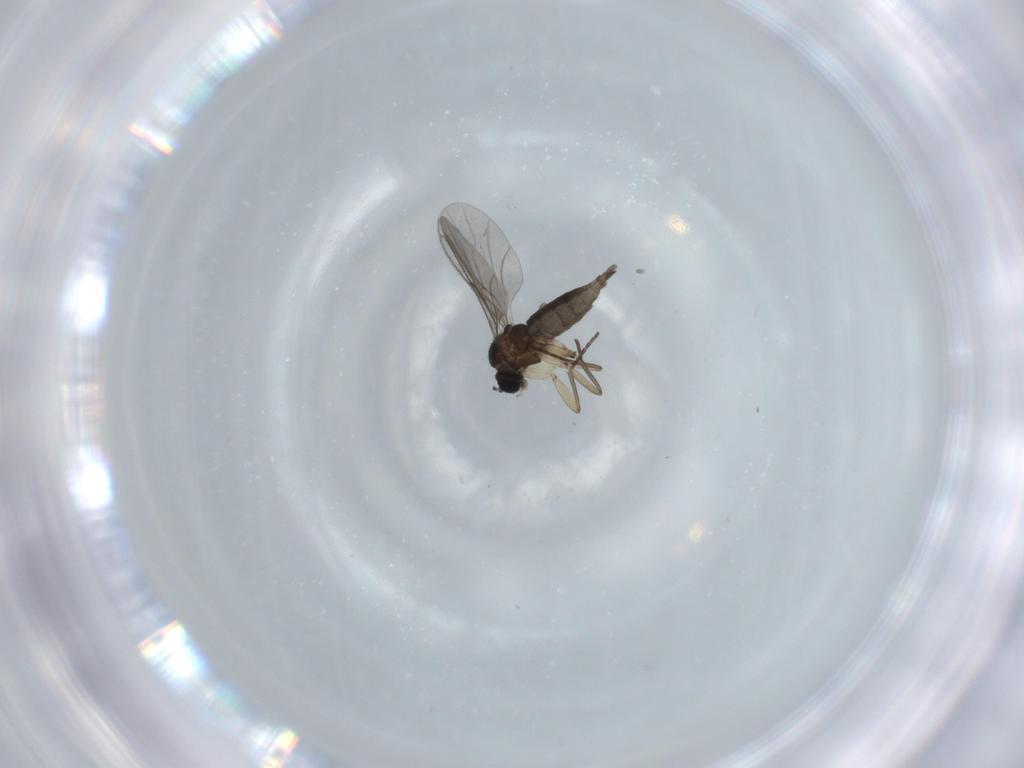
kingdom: Animalia
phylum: Arthropoda
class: Insecta
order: Diptera
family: Sciaridae
